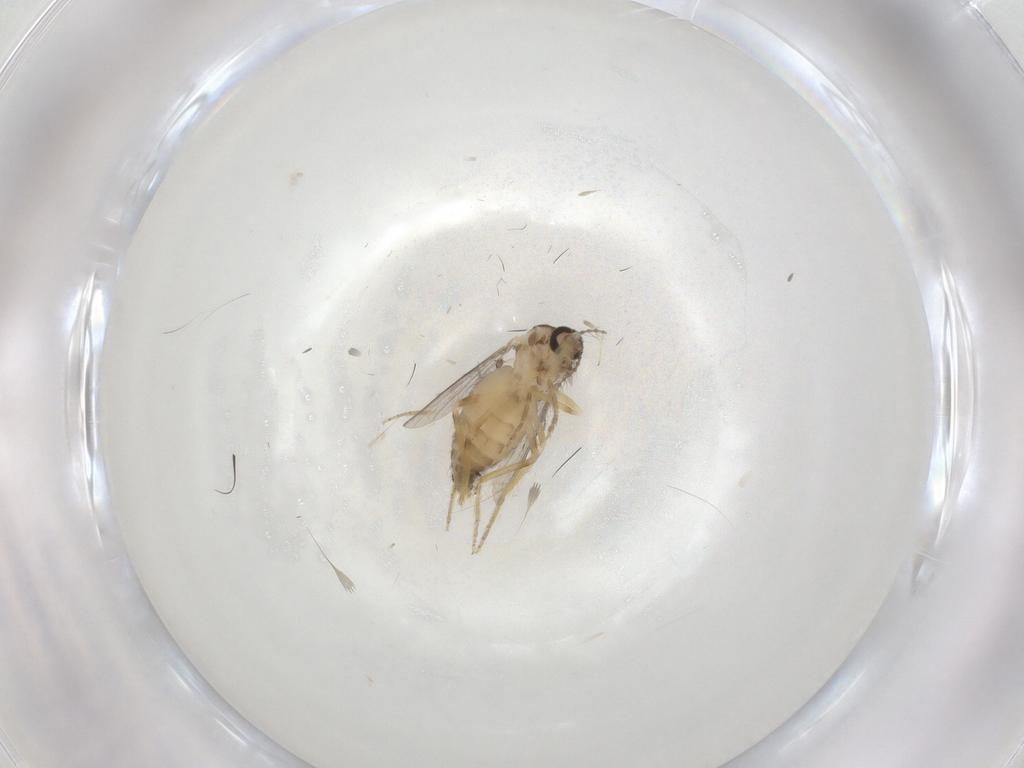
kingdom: Animalia
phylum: Arthropoda
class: Insecta
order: Diptera
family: Ceratopogonidae
